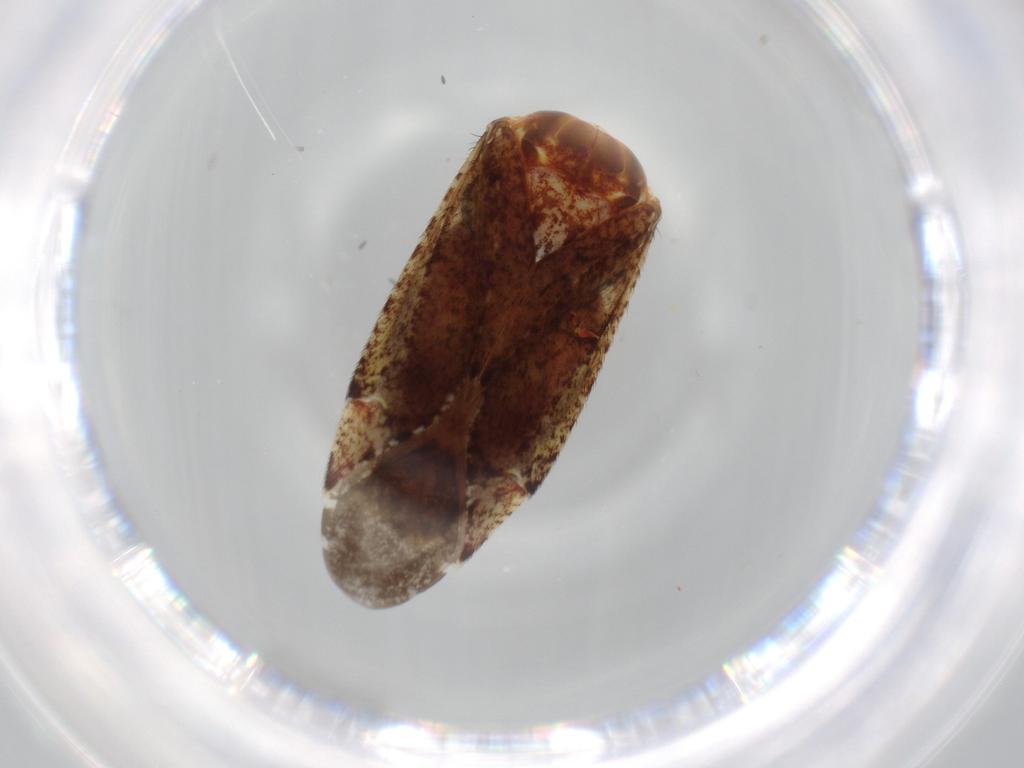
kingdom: Animalia
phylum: Arthropoda
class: Insecta
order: Hemiptera
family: Miridae
